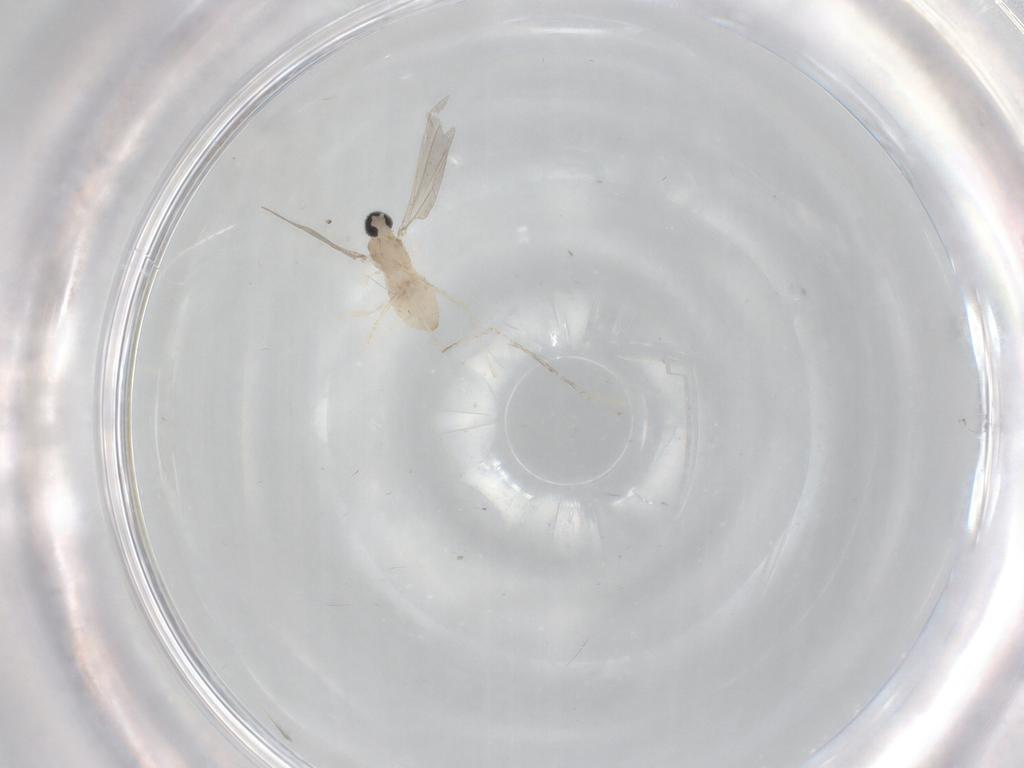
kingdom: Animalia
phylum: Arthropoda
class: Insecta
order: Diptera
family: Cecidomyiidae
